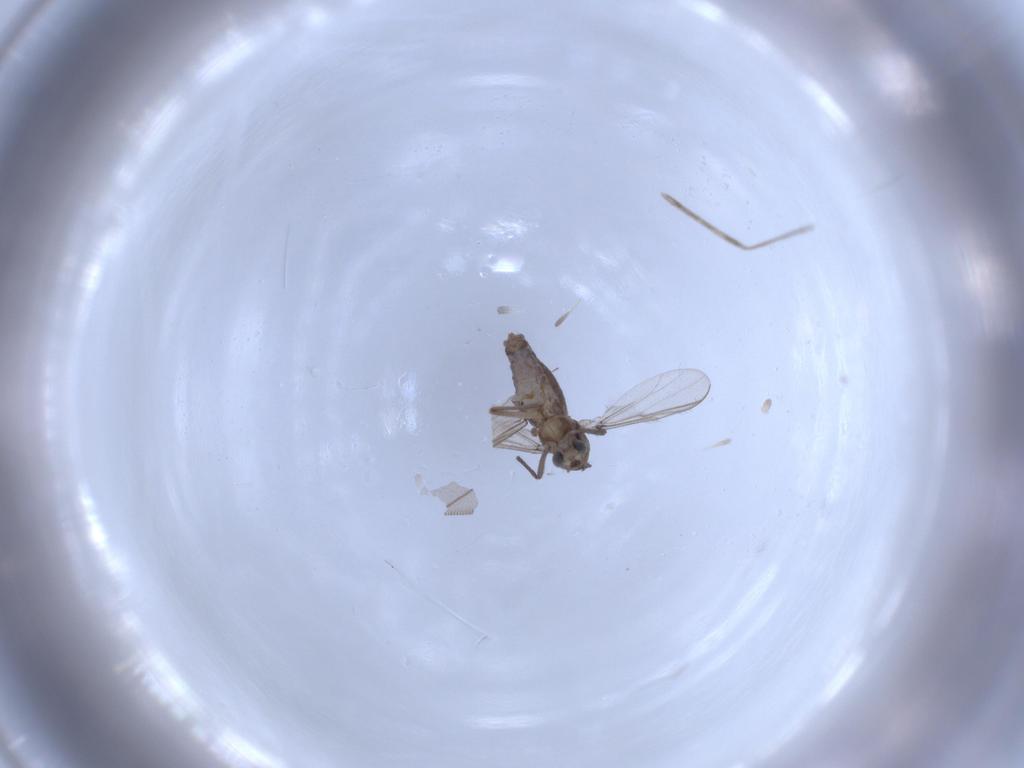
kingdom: Animalia
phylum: Arthropoda
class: Insecta
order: Diptera
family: Chironomidae
